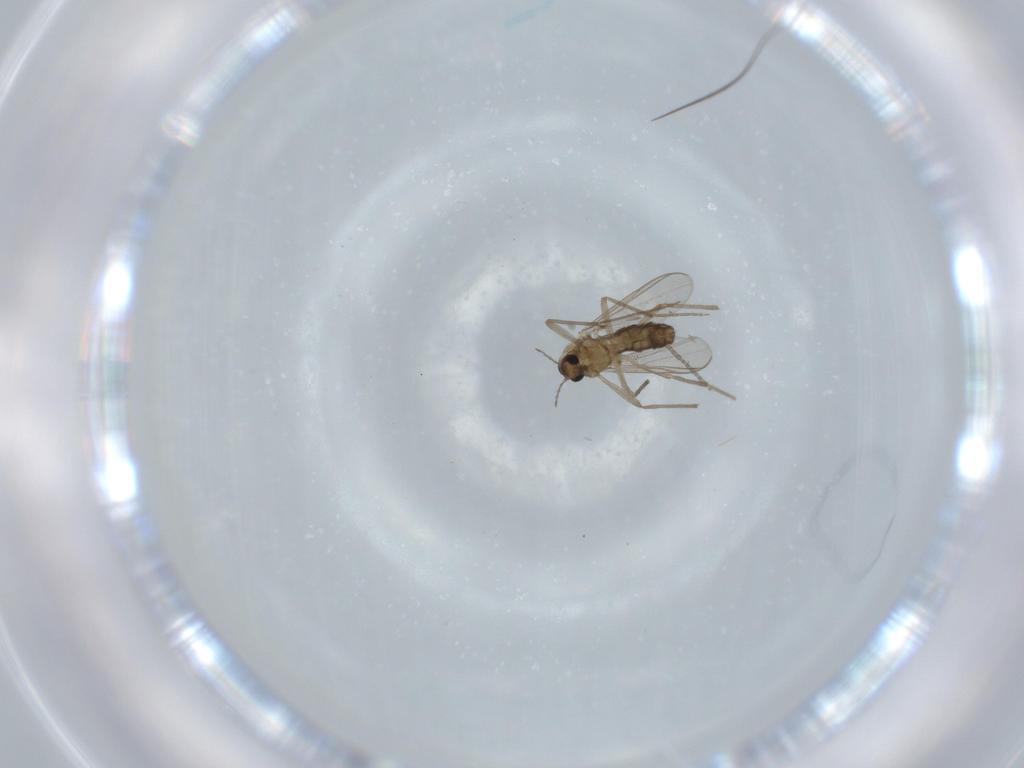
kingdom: Animalia
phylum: Arthropoda
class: Insecta
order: Diptera
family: Chironomidae
